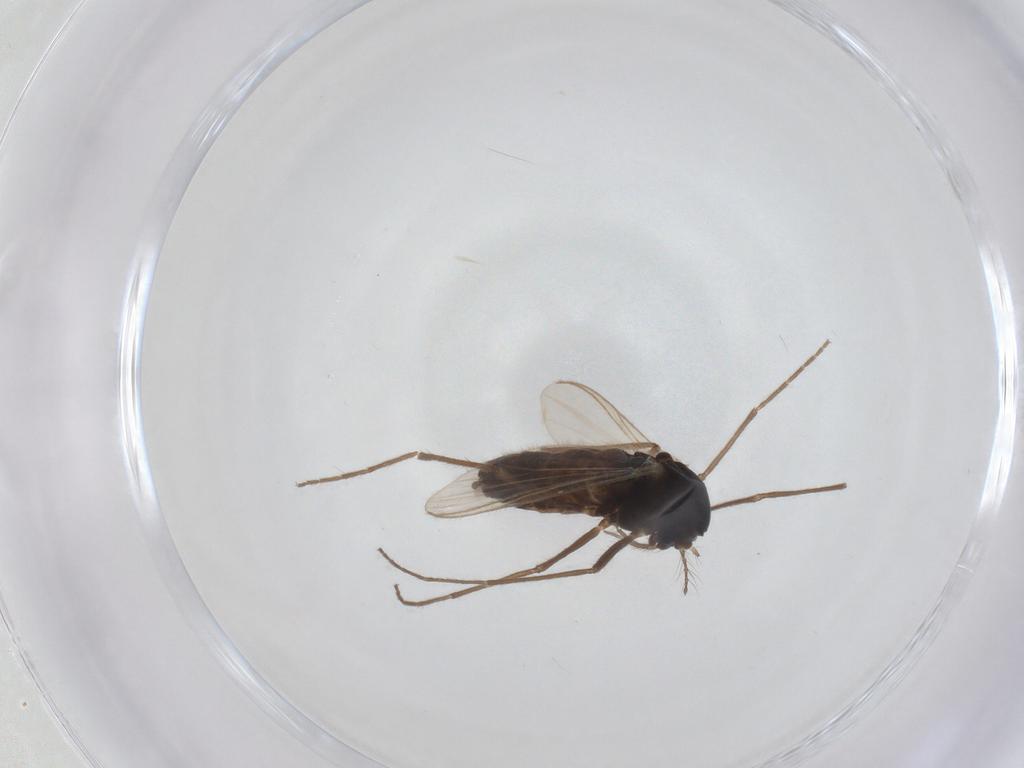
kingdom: Animalia
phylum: Arthropoda
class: Insecta
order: Diptera
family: Chironomidae
